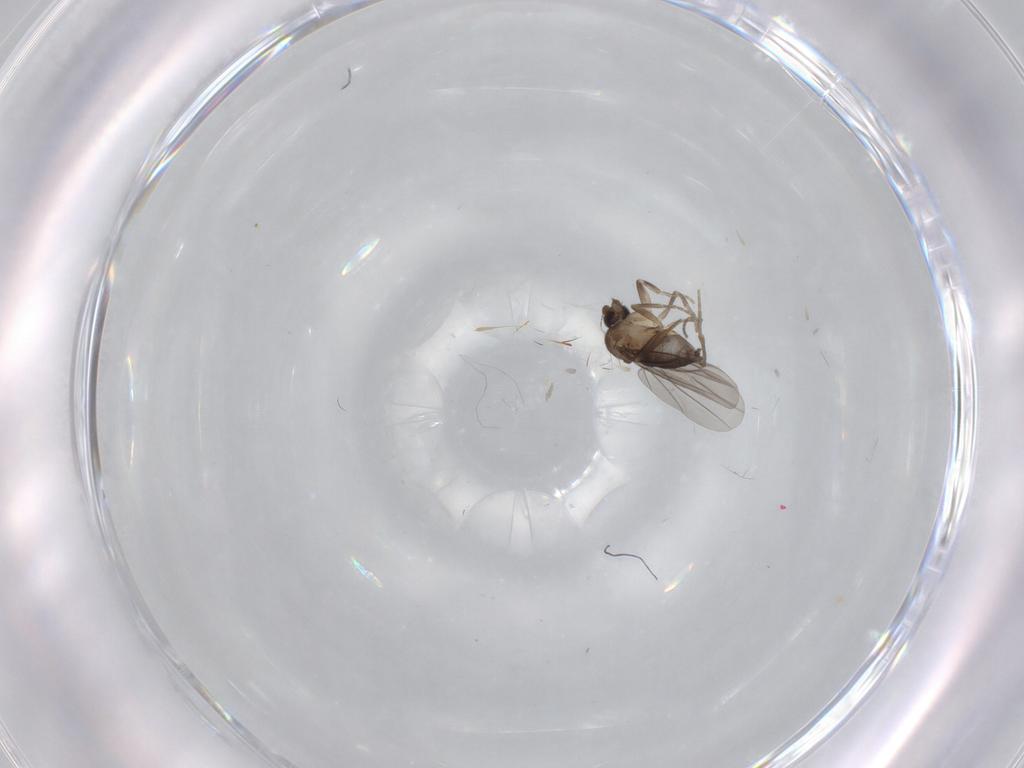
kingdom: Animalia
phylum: Arthropoda
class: Insecta
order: Diptera
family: Phoridae
